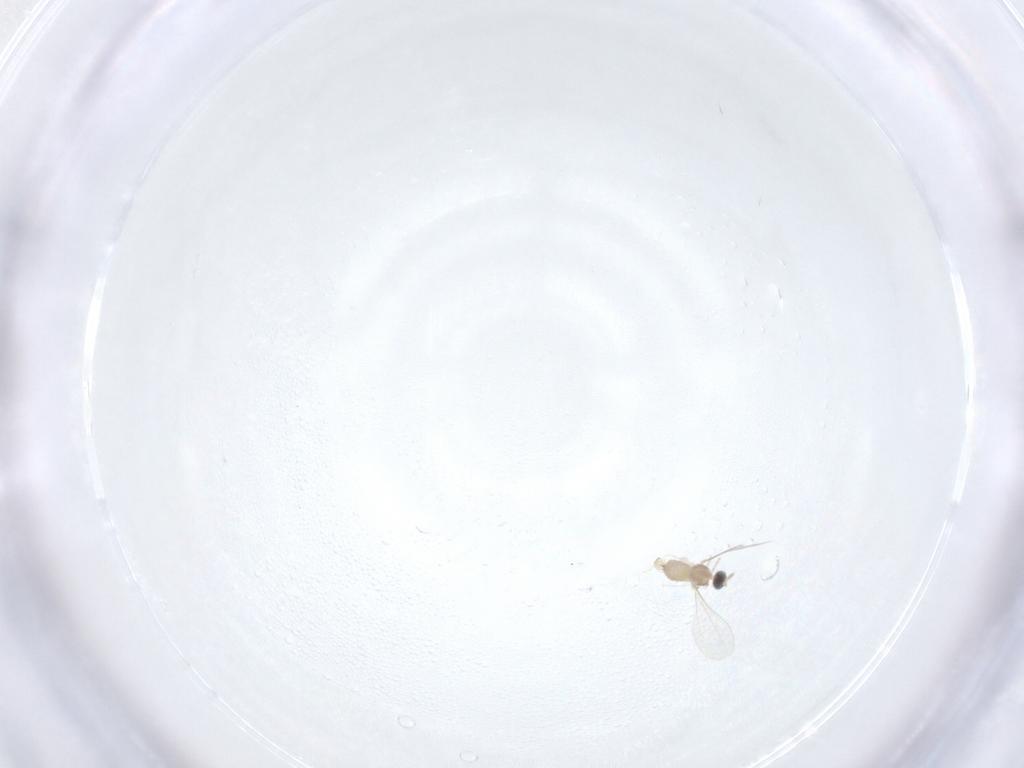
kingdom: Animalia
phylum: Arthropoda
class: Insecta
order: Diptera
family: Cecidomyiidae
